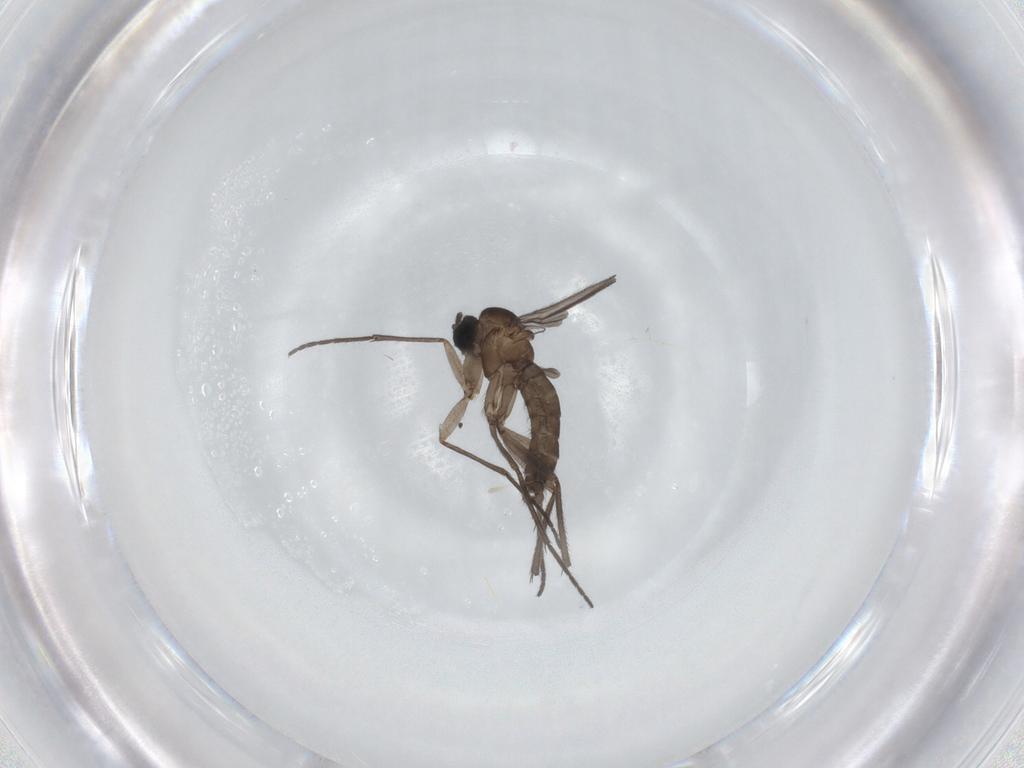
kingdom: Animalia
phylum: Arthropoda
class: Insecta
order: Diptera
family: Sciaridae
